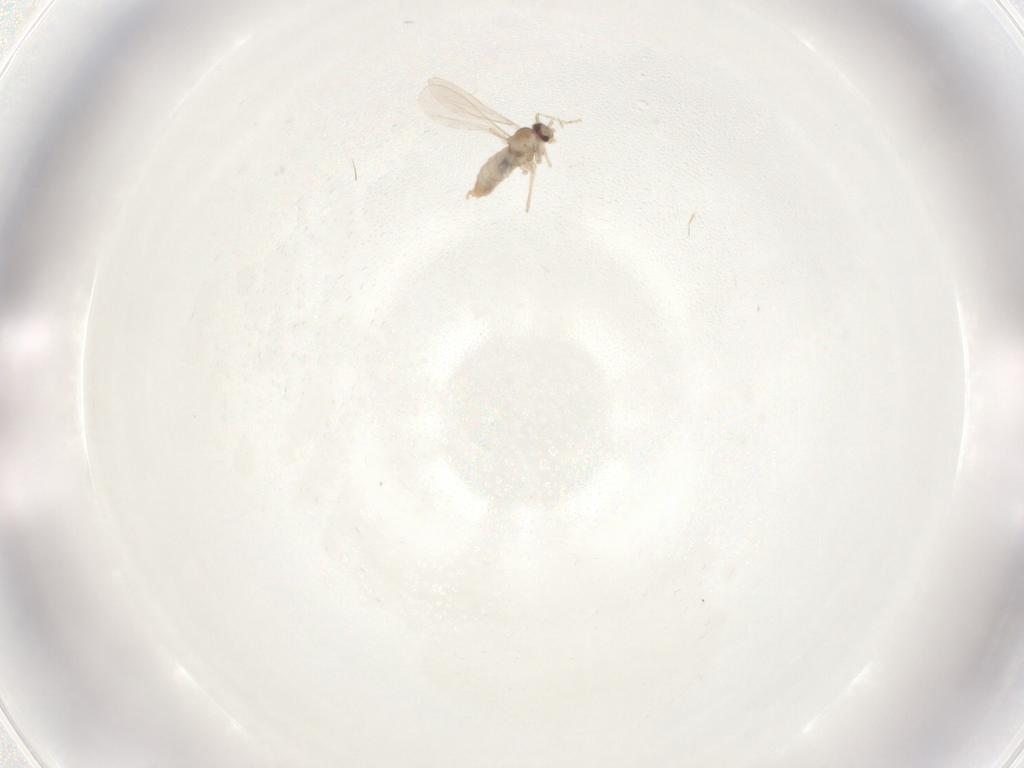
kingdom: Animalia
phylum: Arthropoda
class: Insecta
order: Diptera
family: Cecidomyiidae
